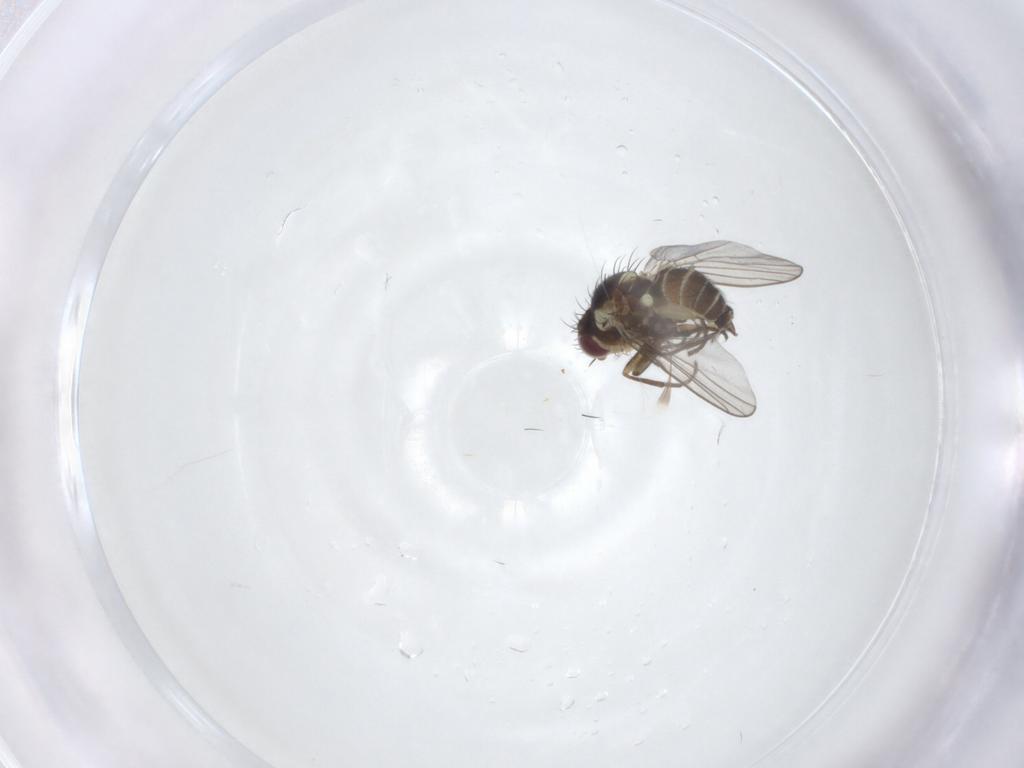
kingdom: Animalia
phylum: Arthropoda
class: Insecta
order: Diptera
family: Agromyzidae
